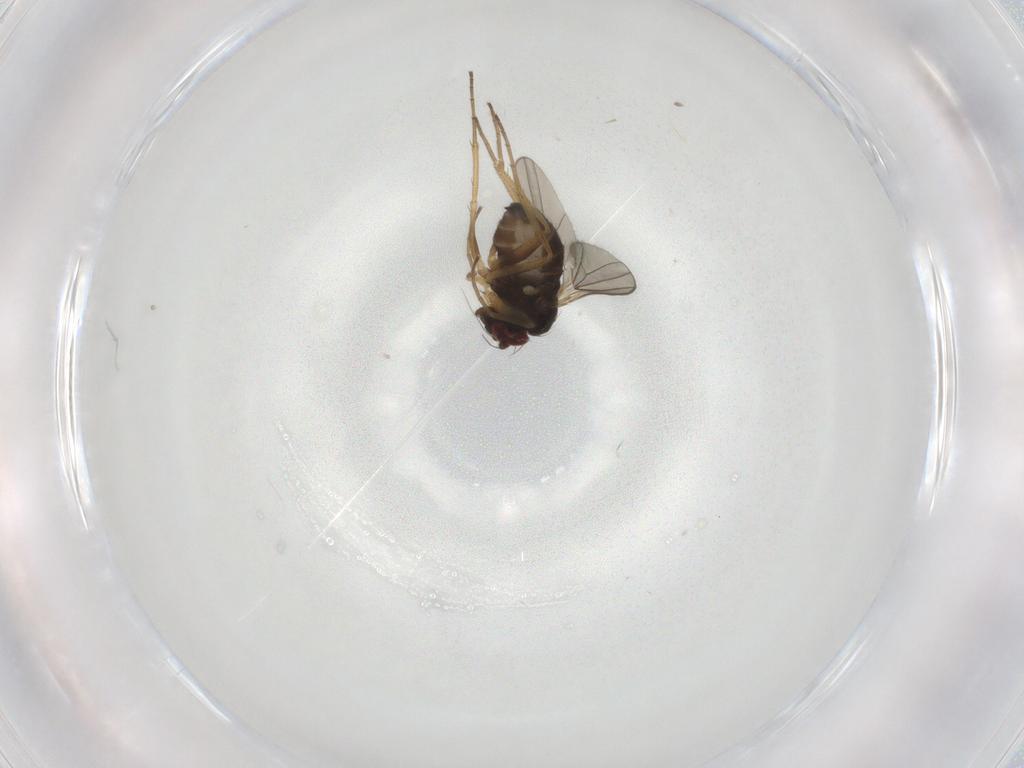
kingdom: Animalia
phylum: Arthropoda
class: Insecta
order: Diptera
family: Dolichopodidae
